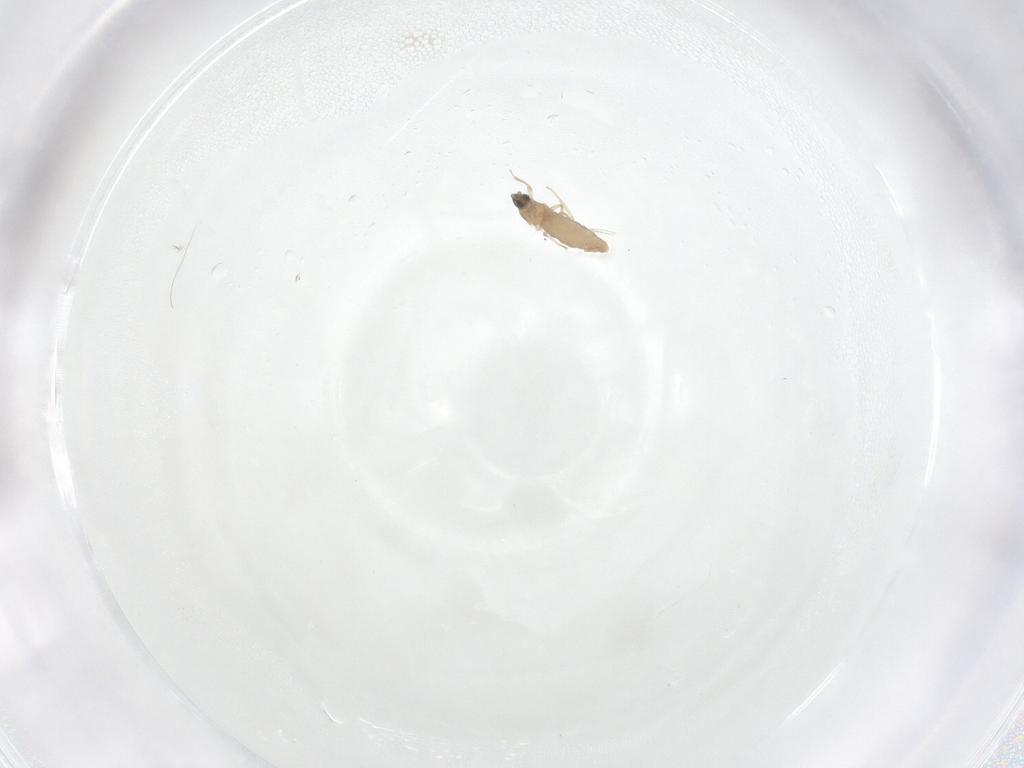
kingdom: Animalia
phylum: Arthropoda
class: Insecta
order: Diptera
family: Cecidomyiidae
